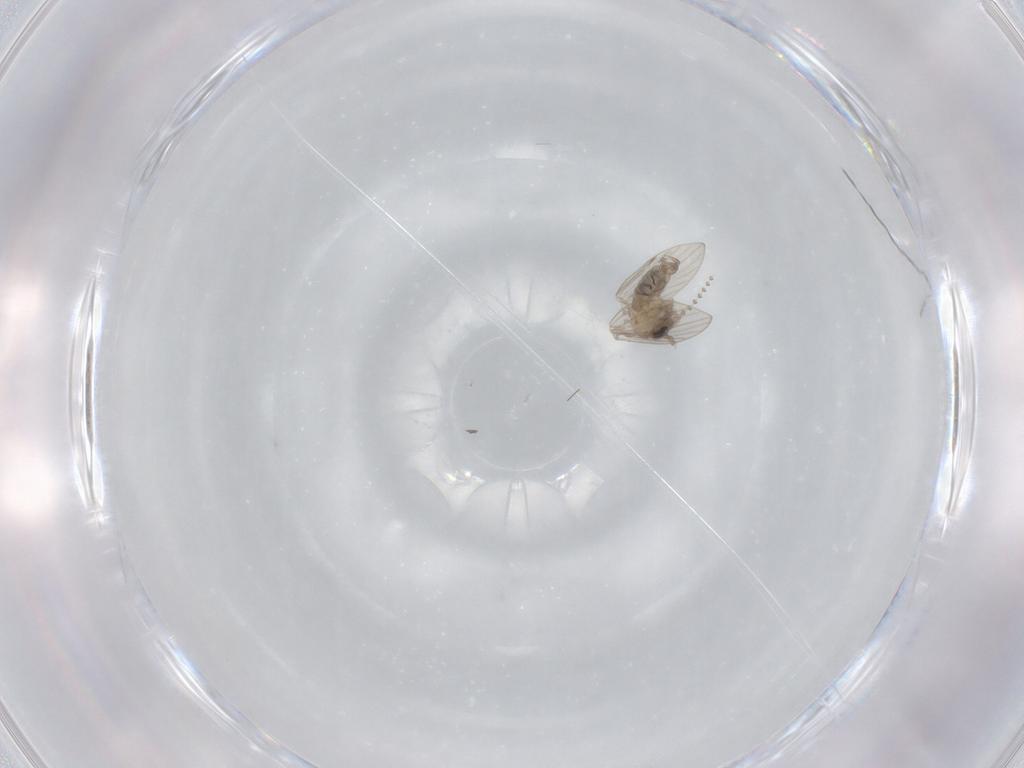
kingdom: Animalia
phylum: Arthropoda
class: Insecta
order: Diptera
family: Psychodidae
